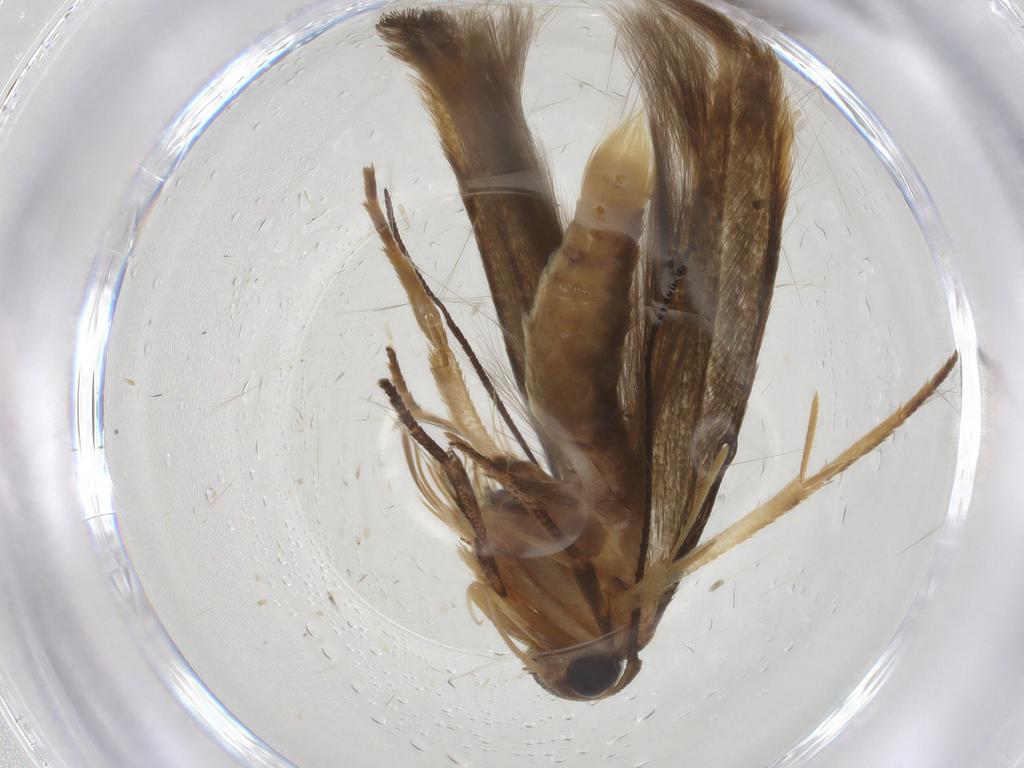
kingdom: Animalia
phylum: Arthropoda
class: Insecta
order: Lepidoptera
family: Stathmopodidae
